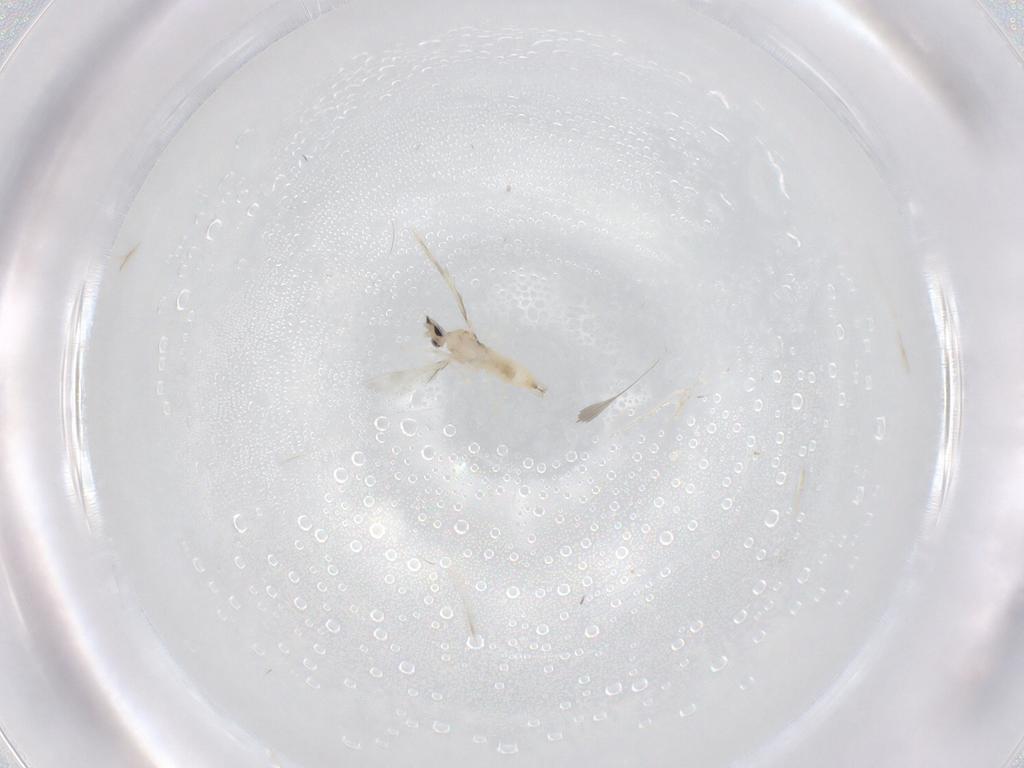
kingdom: Animalia
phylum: Arthropoda
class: Insecta
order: Diptera
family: Cecidomyiidae
